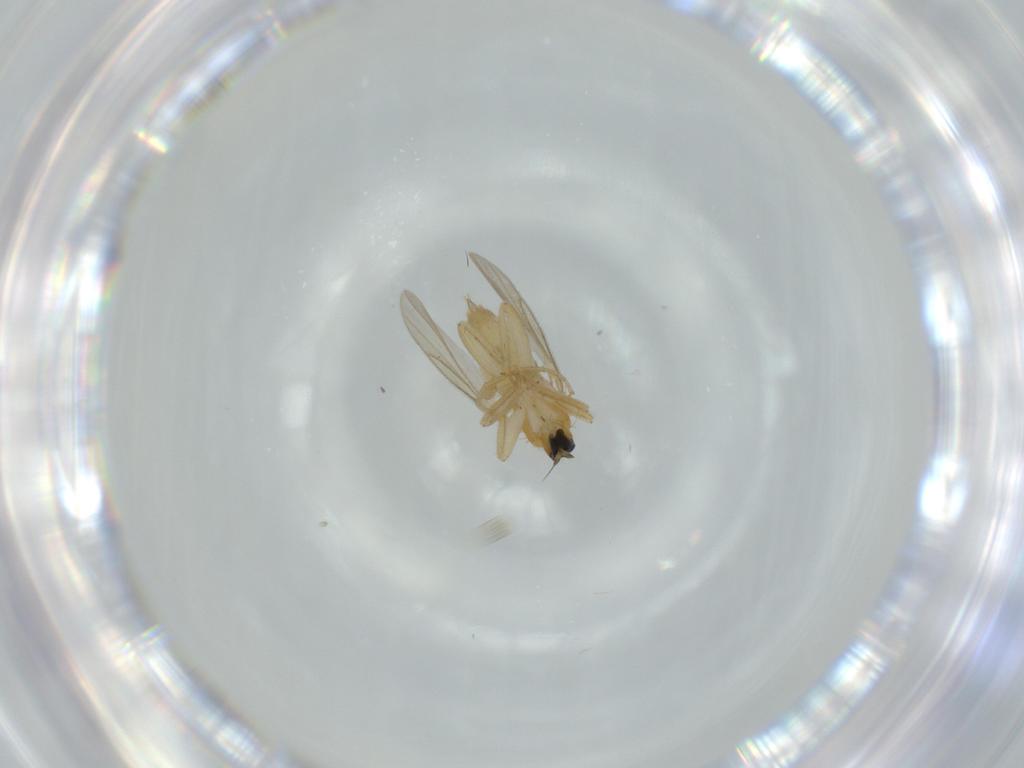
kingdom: Animalia
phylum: Arthropoda
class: Insecta
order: Diptera
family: Hybotidae
